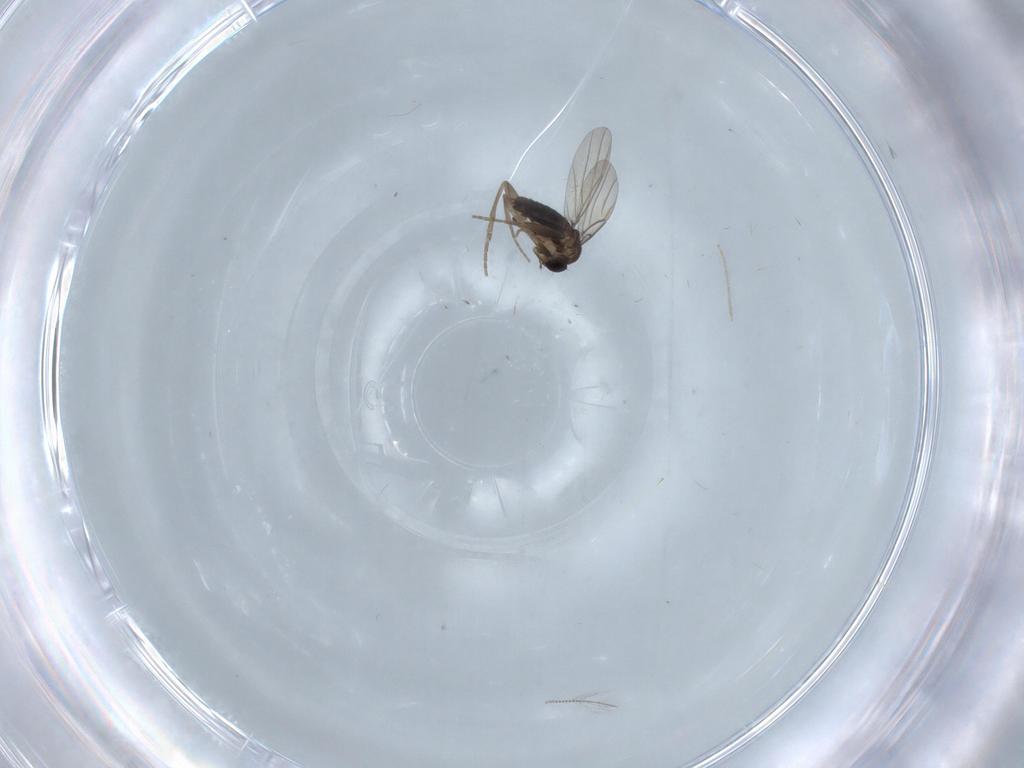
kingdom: Animalia
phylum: Arthropoda
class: Insecta
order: Diptera
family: Phoridae
